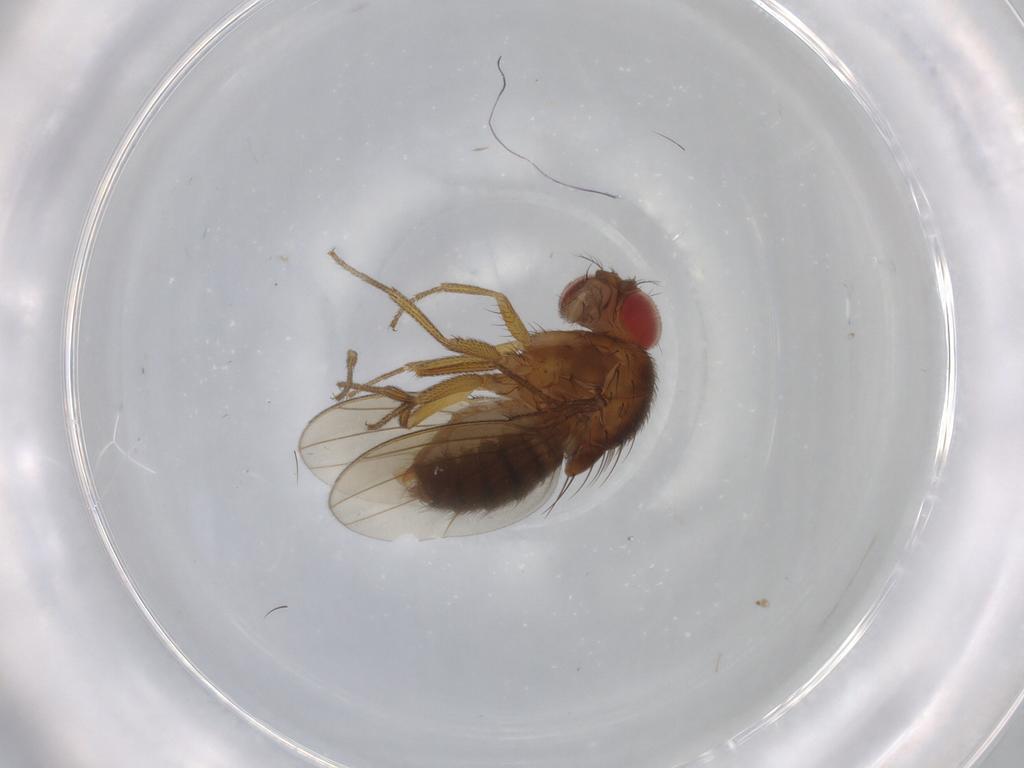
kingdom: Animalia
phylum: Arthropoda
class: Insecta
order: Diptera
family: Drosophilidae
